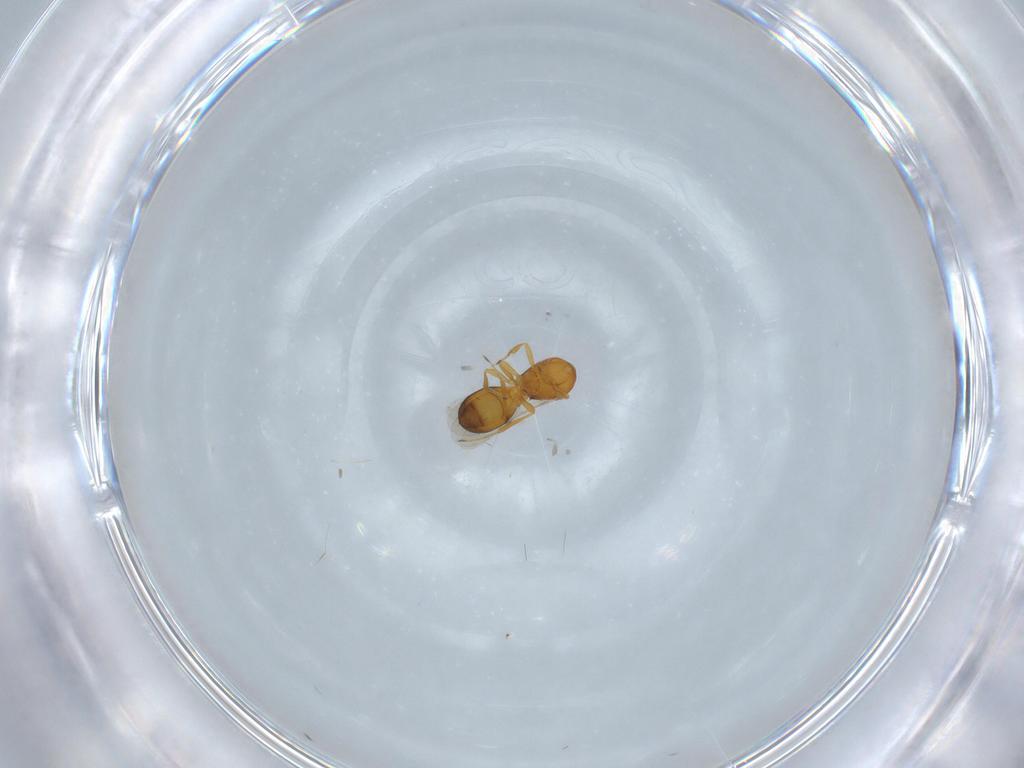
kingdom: Animalia
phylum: Arthropoda
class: Insecta
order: Hymenoptera
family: Scelionidae
